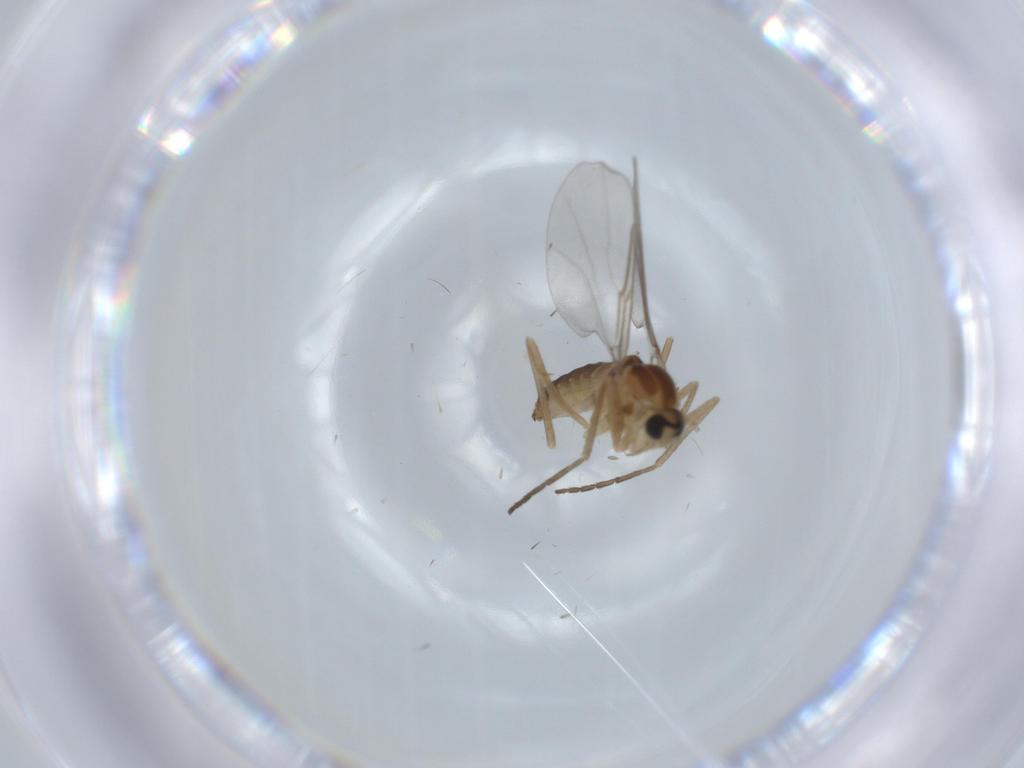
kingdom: Animalia
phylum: Arthropoda
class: Insecta
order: Diptera
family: Cecidomyiidae
